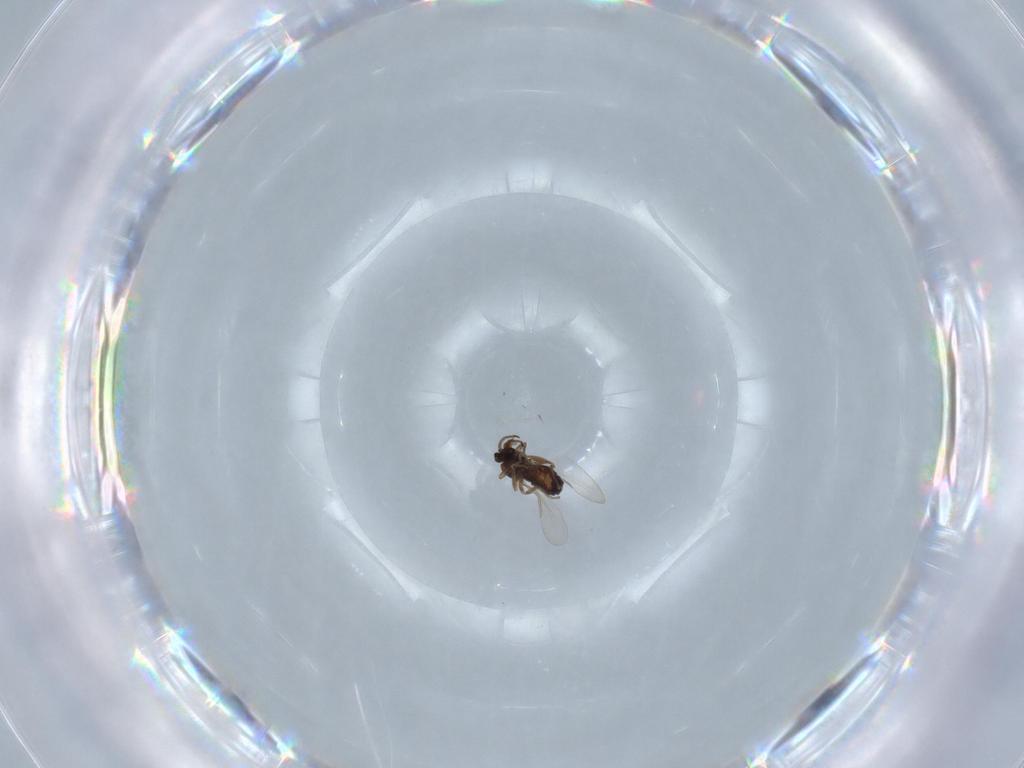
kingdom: Animalia
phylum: Arthropoda
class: Insecta
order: Diptera
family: Ceratopogonidae
